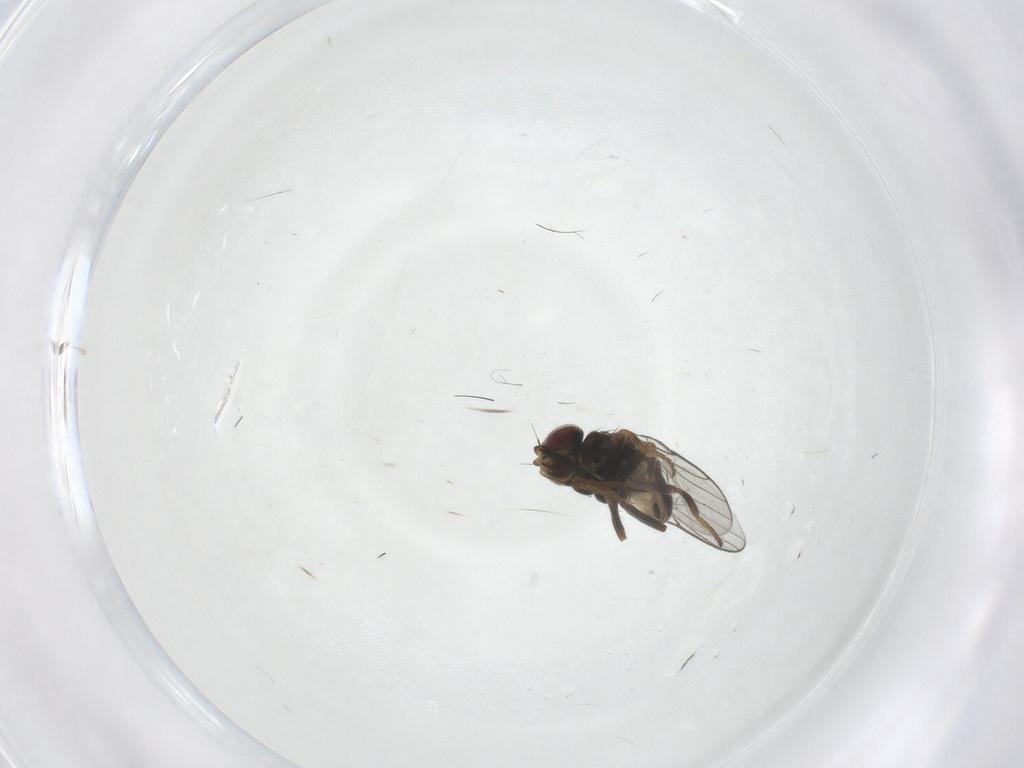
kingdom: Animalia
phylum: Arthropoda
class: Insecta
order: Diptera
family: Chloropidae
